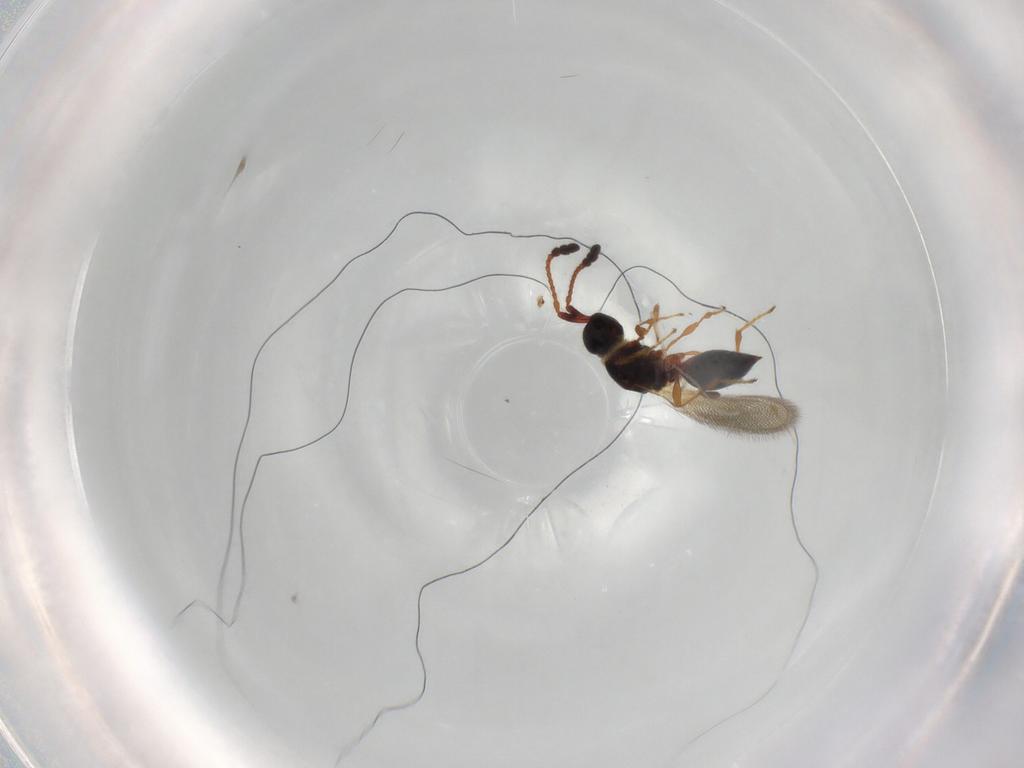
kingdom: Animalia
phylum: Arthropoda
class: Insecta
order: Hymenoptera
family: Diapriidae
